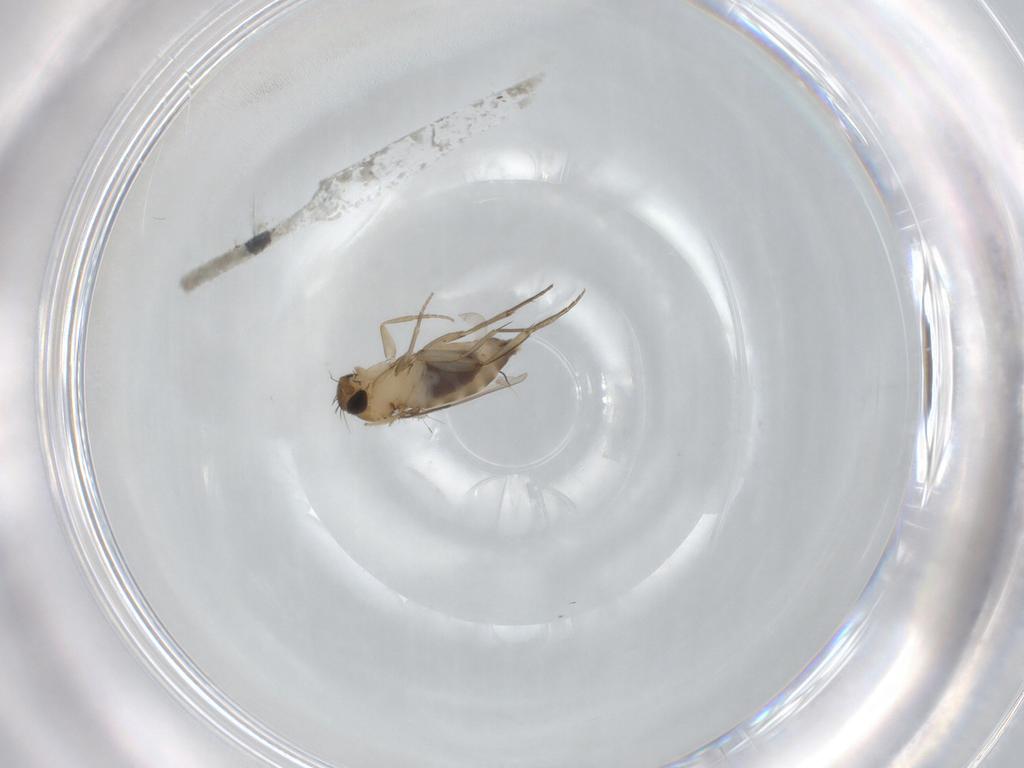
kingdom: Animalia
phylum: Arthropoda
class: Insecta
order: Diptera
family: Phoridae
